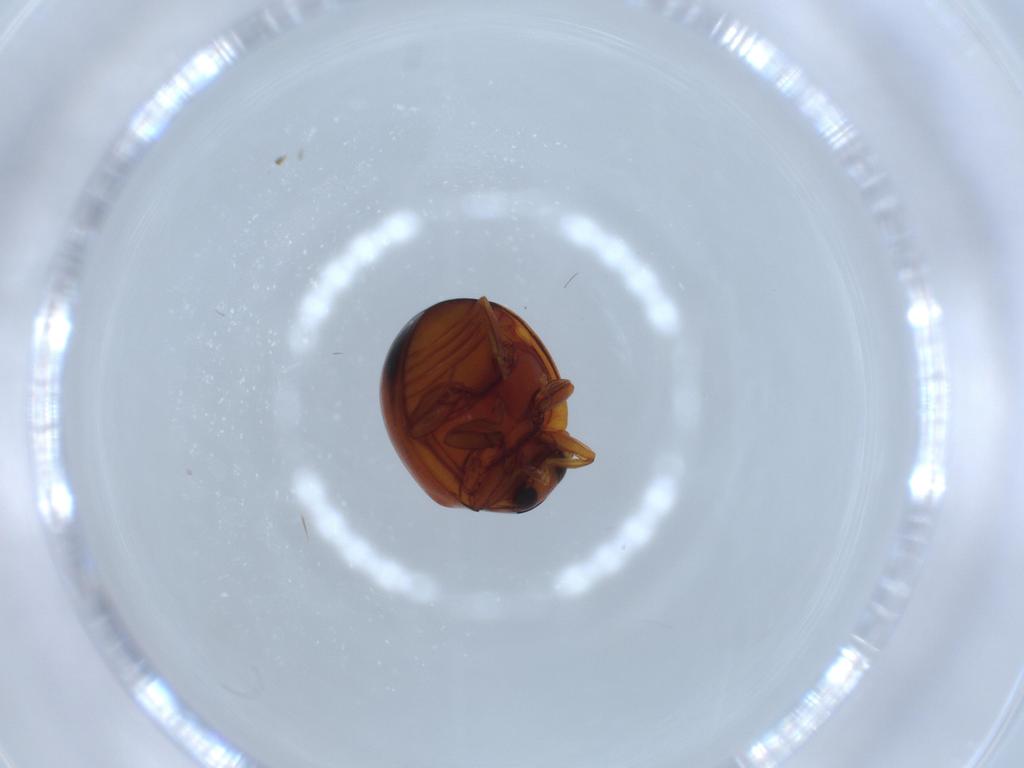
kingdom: Animalia
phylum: Arthropoda
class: Insecta
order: Coleoptera
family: Coccinellidae
